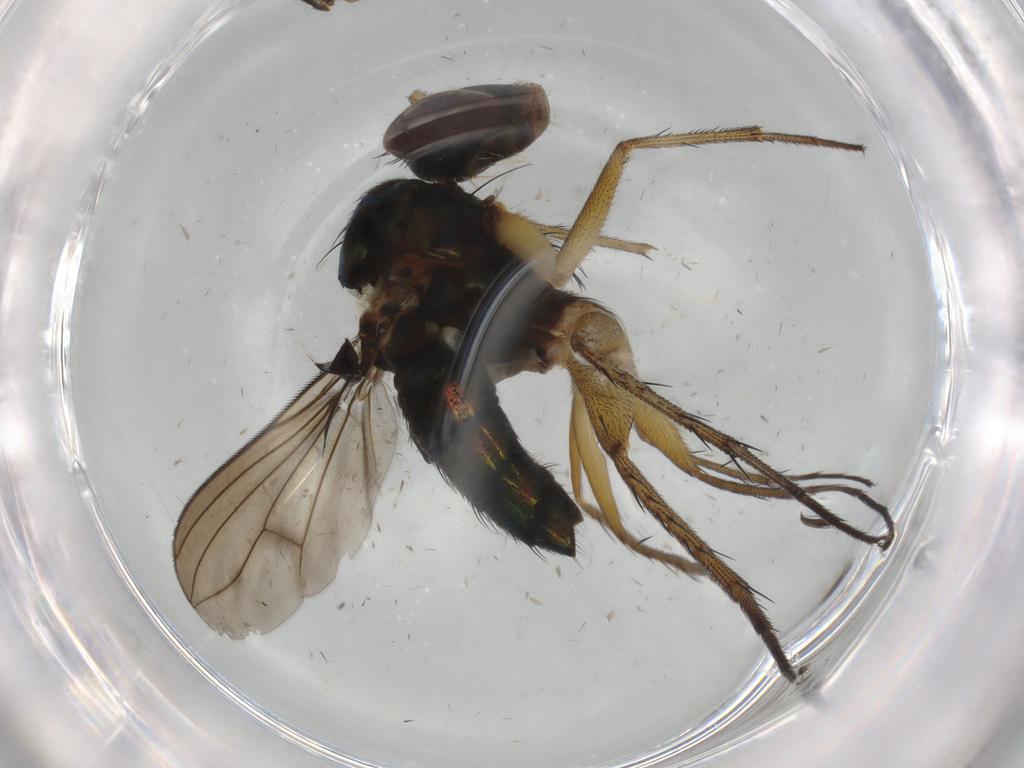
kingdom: Animalia
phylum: Arthropoda
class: Insecta
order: Diptera
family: Dolichopodidae
